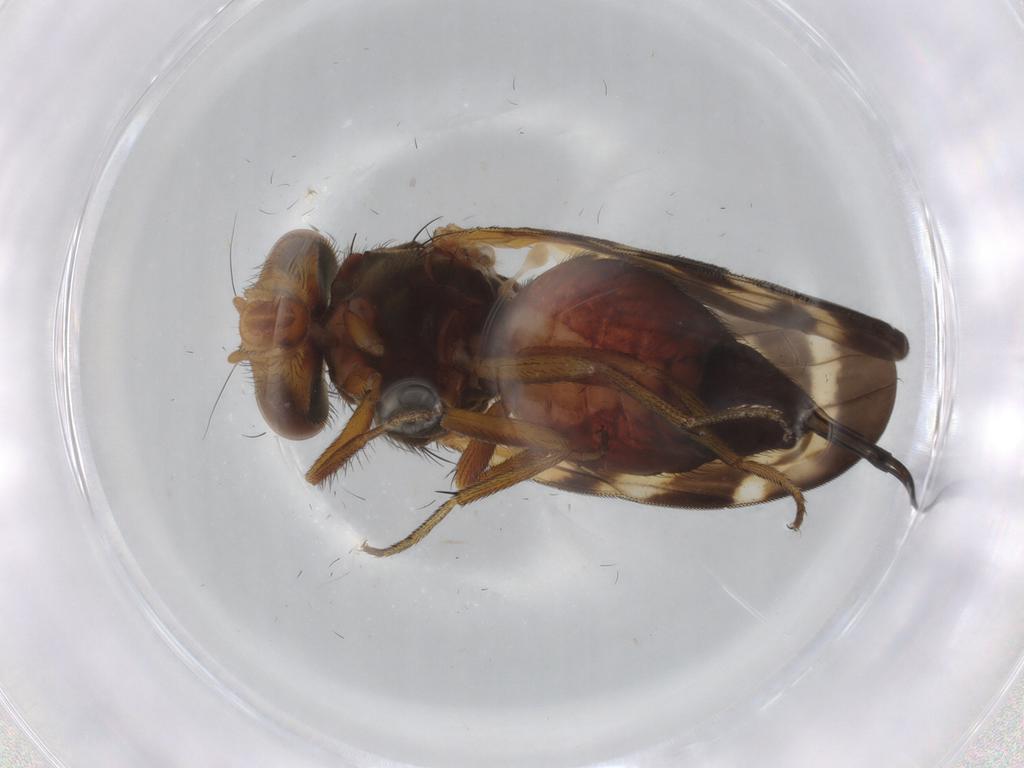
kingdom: Animalia
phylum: Arthropoda
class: Insecta
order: Diptera
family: Ulidiidae
